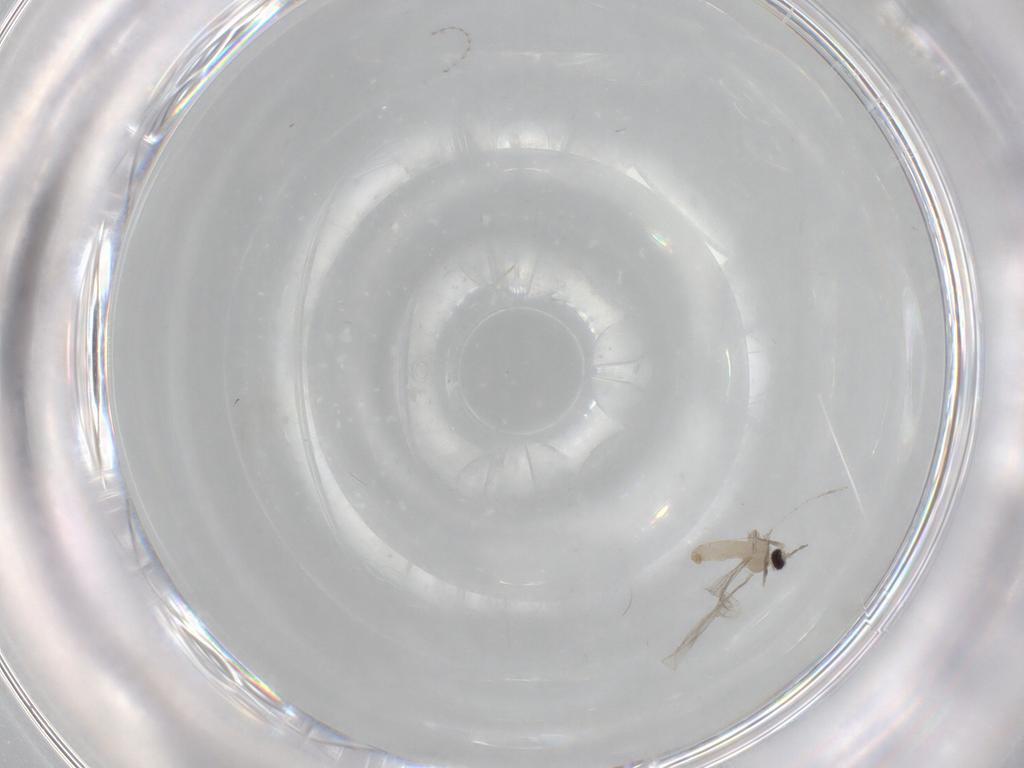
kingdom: Animalia
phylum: Arthropoda
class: Insecta
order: Diptera
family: Cecidomyiidae
